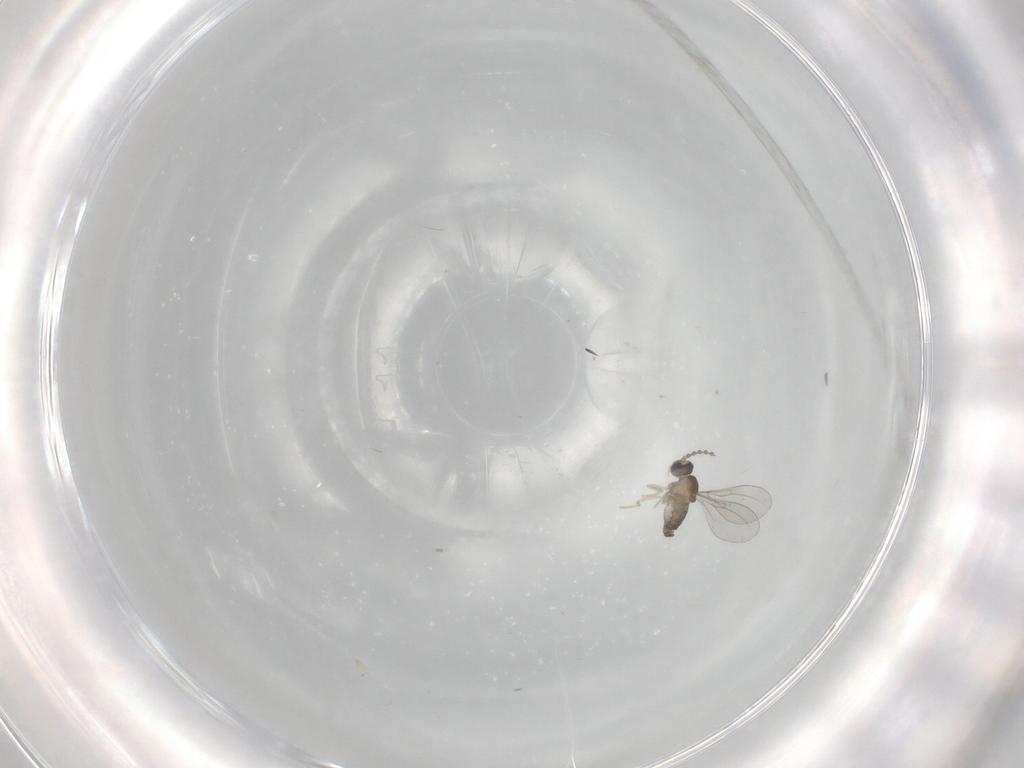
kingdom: Animalia
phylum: Arthropoda
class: Insecta
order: Diptera
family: Cecidomyiidae
